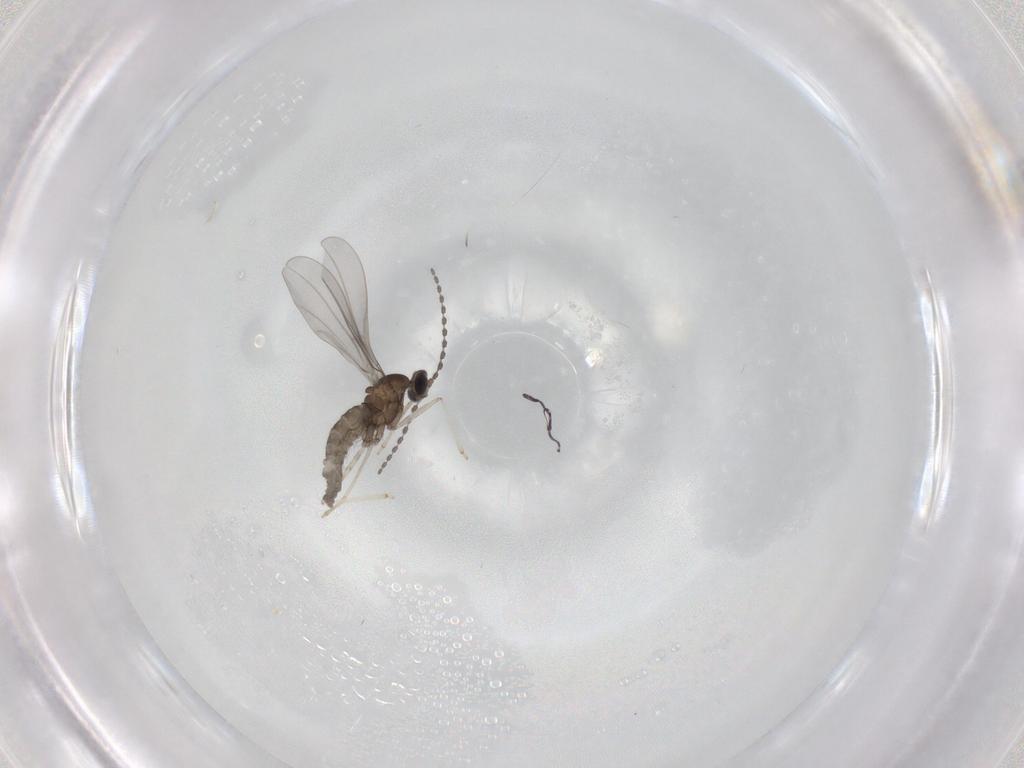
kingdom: Animalia
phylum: Arthropoda
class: Insecta
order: Diptera
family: Cecidomyiidae
